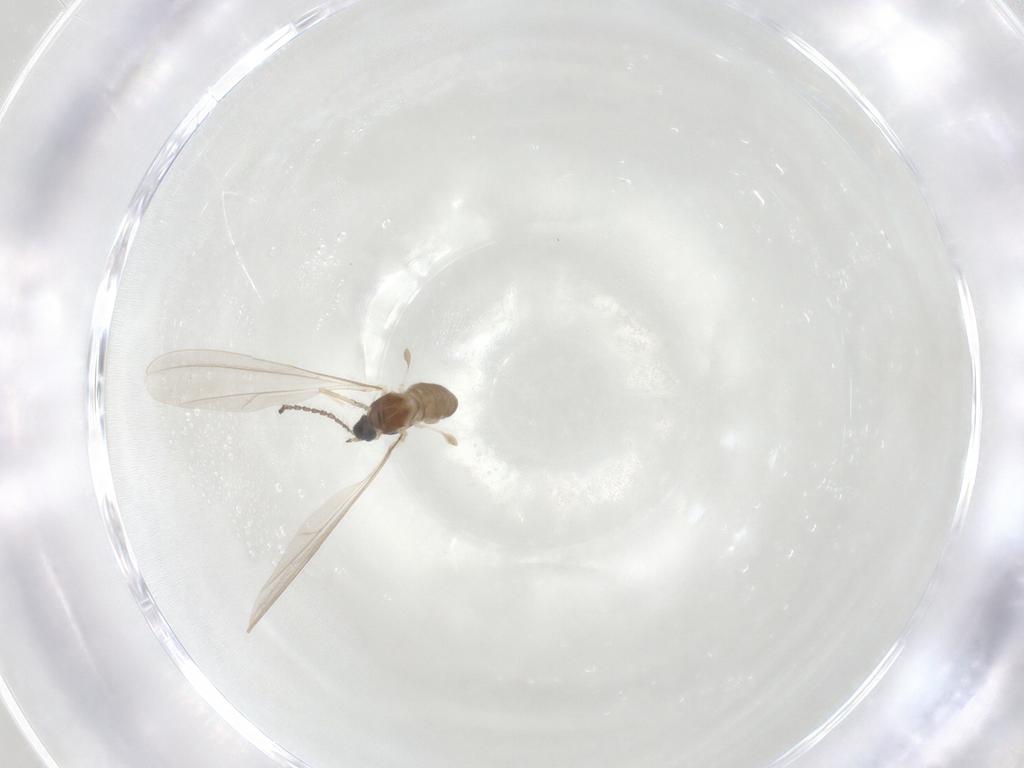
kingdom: Animalia
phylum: Arthropoda
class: Insecta
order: Diptera
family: Cecidomyiidae
